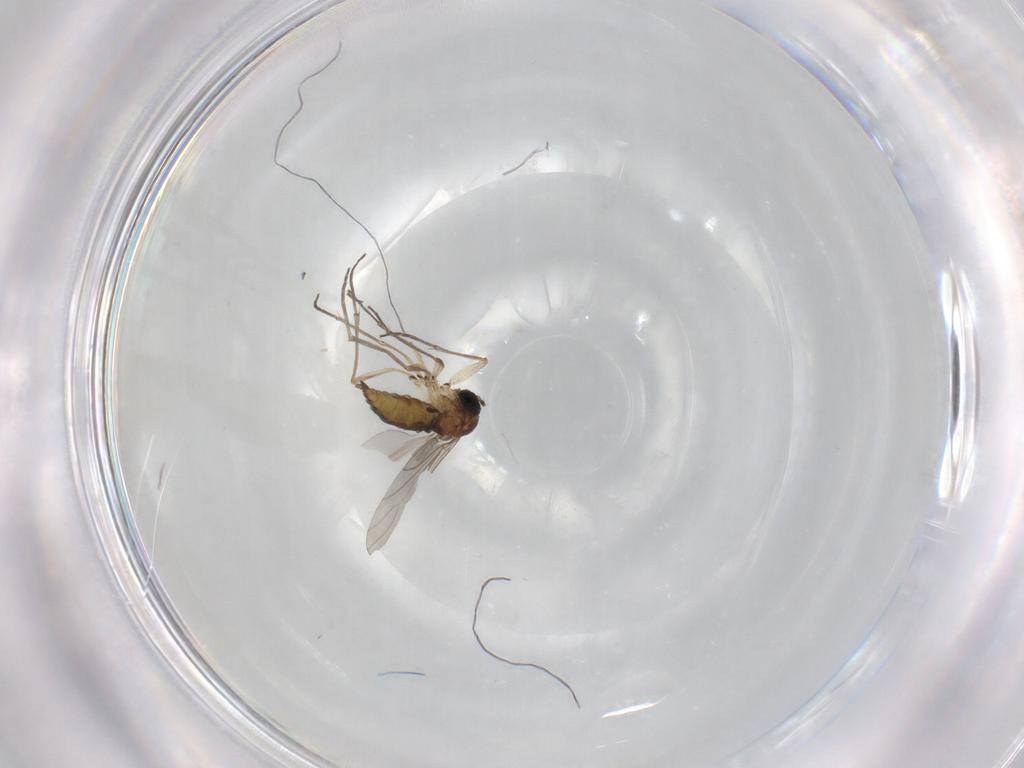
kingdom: Animalia
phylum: Arthropoda
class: Insecta
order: Diptera
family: Sciaridae
